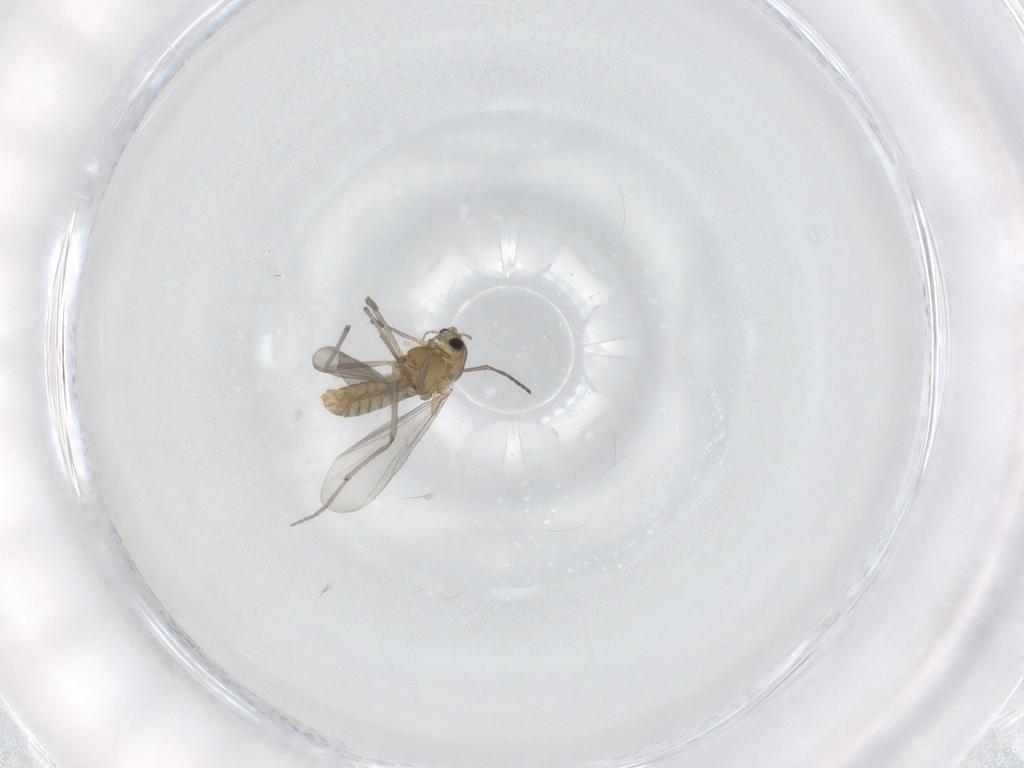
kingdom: Animalia
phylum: Arthropoda
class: Insecta
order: Diptera
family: Chironomidae
